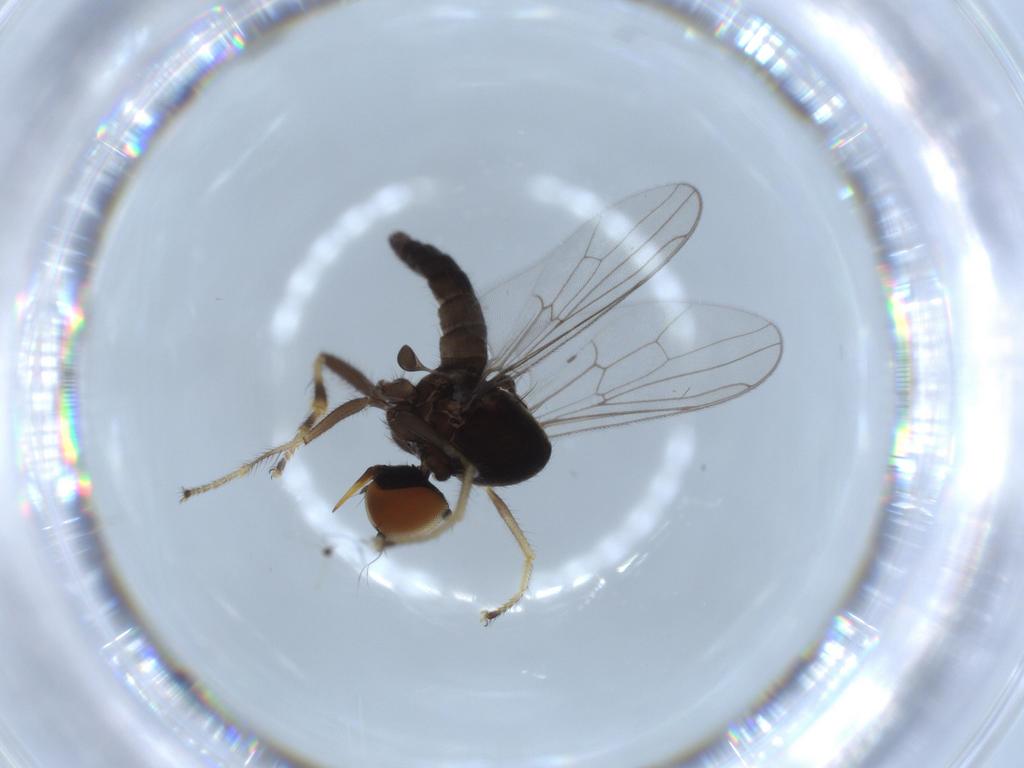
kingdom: Animalia
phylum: Arthropoda
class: Insecta
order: Diptera
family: Hybotidae
